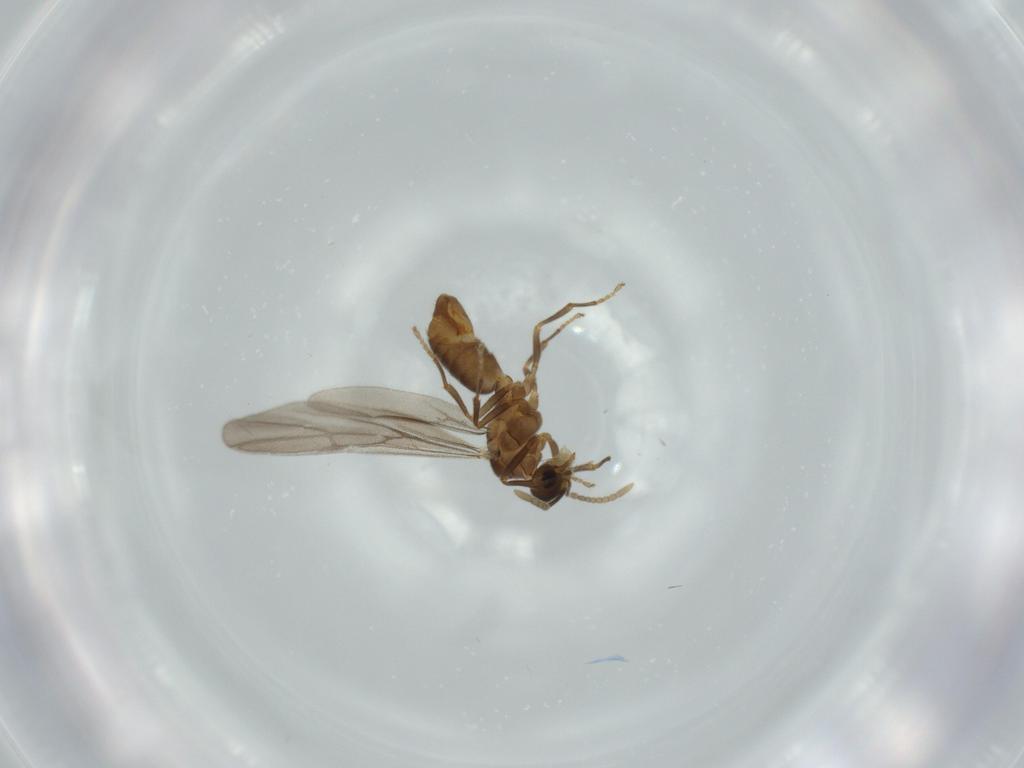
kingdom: Animalia
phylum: Arthropoda
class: Insecta
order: Hymenoptera
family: Formicidae
